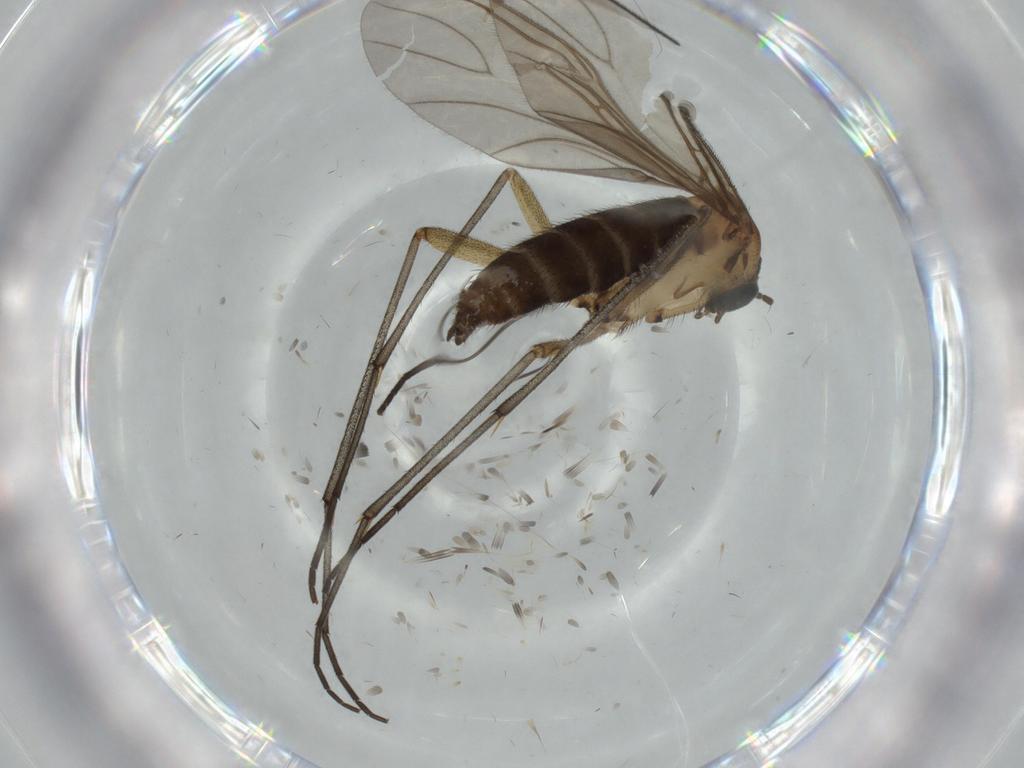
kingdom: Animalia
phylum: Arthropoda
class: Insecta
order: Diptera
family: Sciaridae
